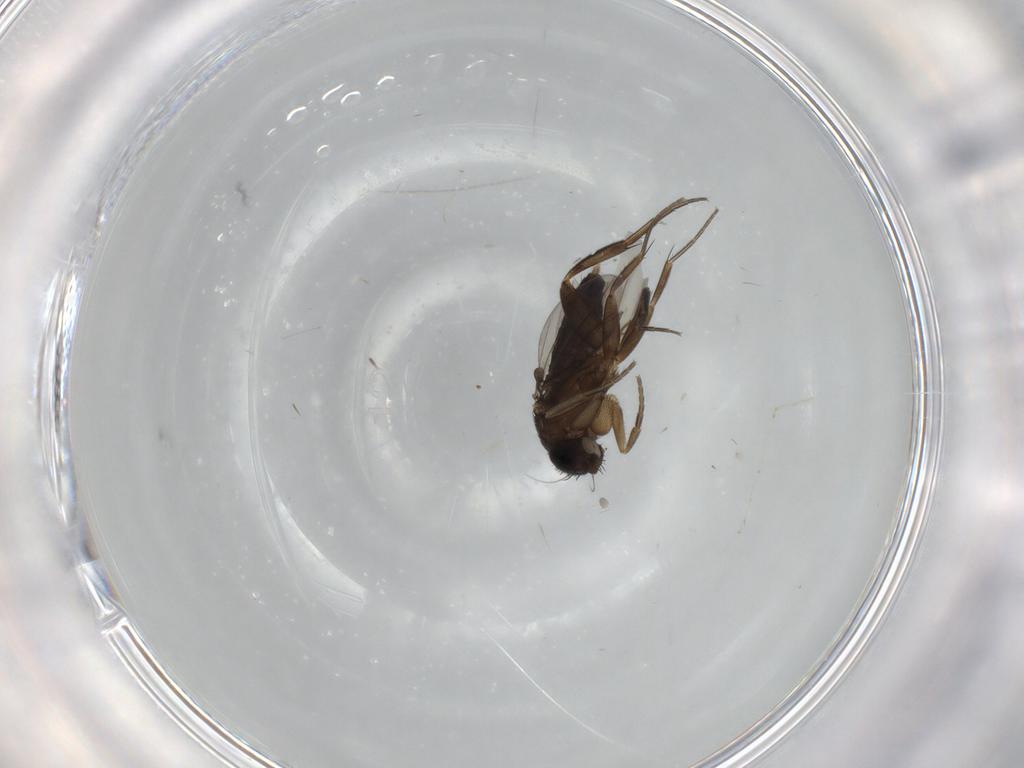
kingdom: Animalia
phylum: Arthropoda
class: Insecta
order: Diptera
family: Phoridae
